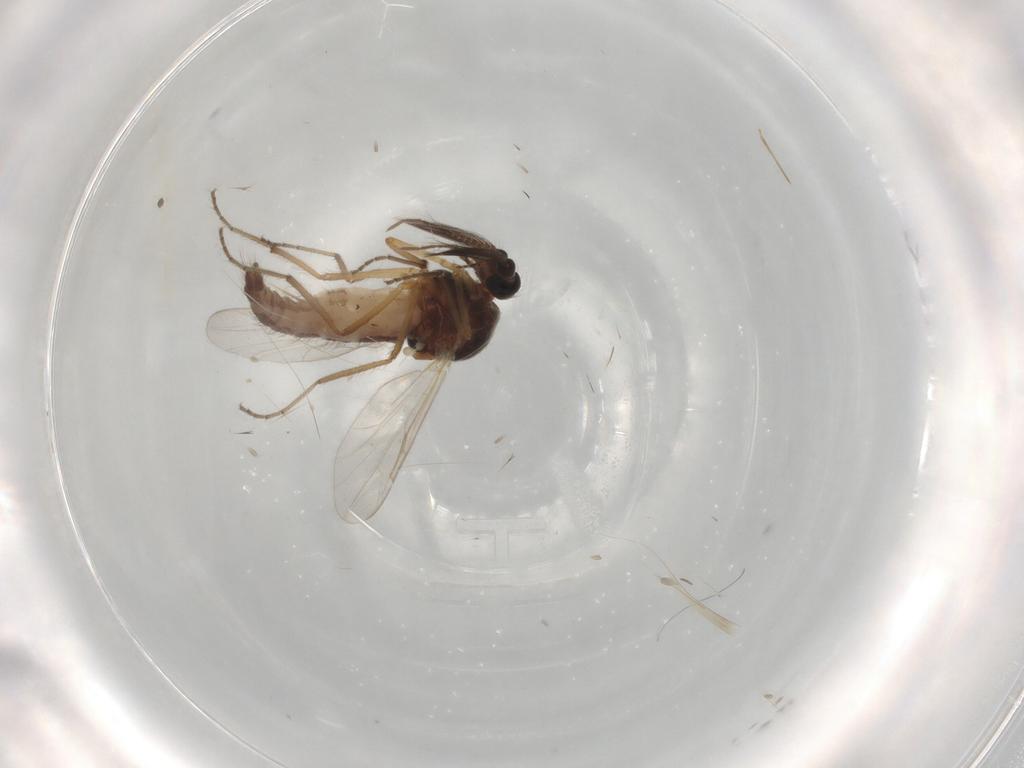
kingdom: Animalia
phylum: Arthropoda
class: Insecta
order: Diptera
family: Ceratopogonidae
